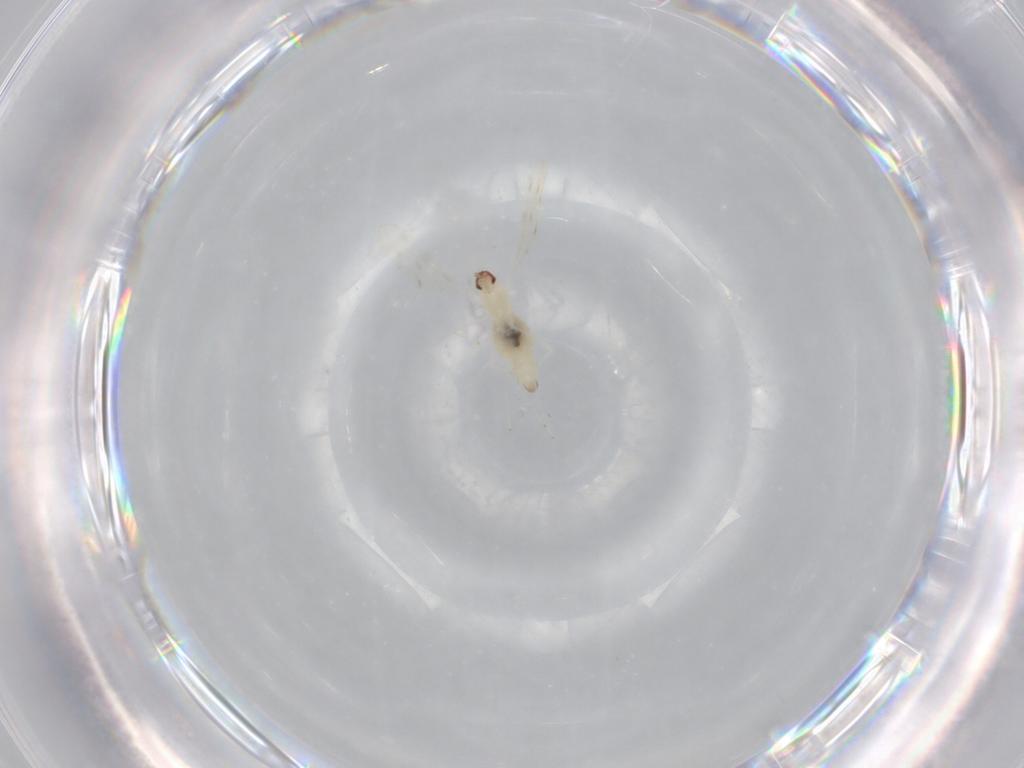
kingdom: Animalia
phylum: Arthropoda
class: Insecta
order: Diptera
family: Cecidomyiidae
